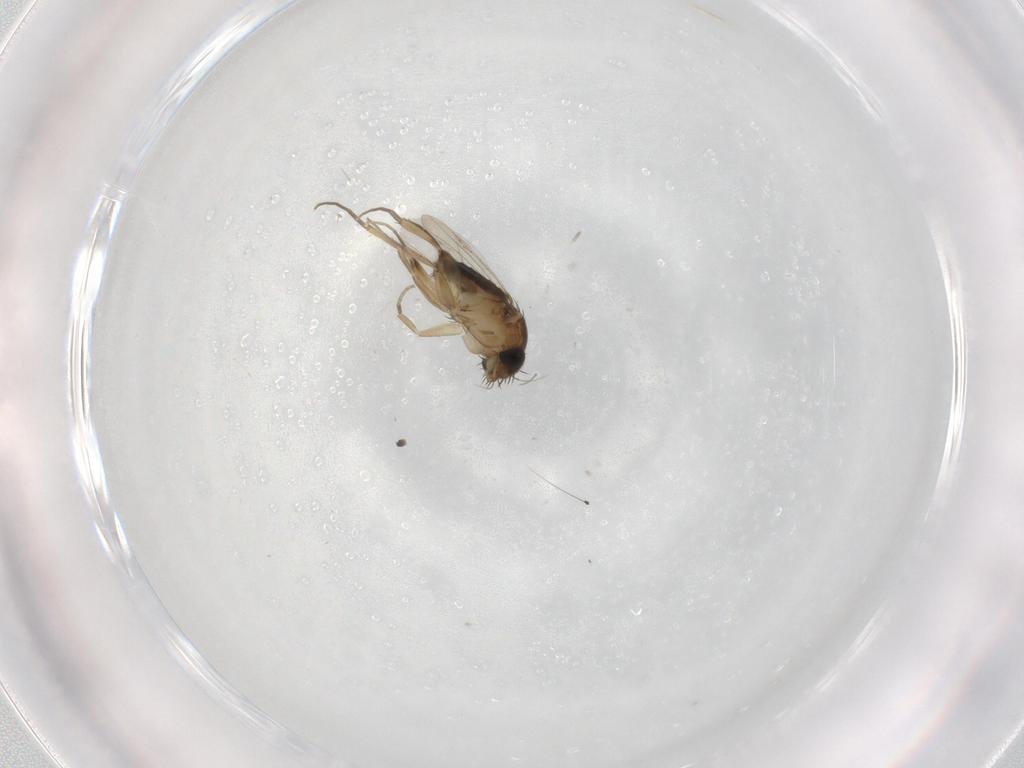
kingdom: Animalia
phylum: Arthropoda
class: Insecta
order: Diptera
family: Phoridae
